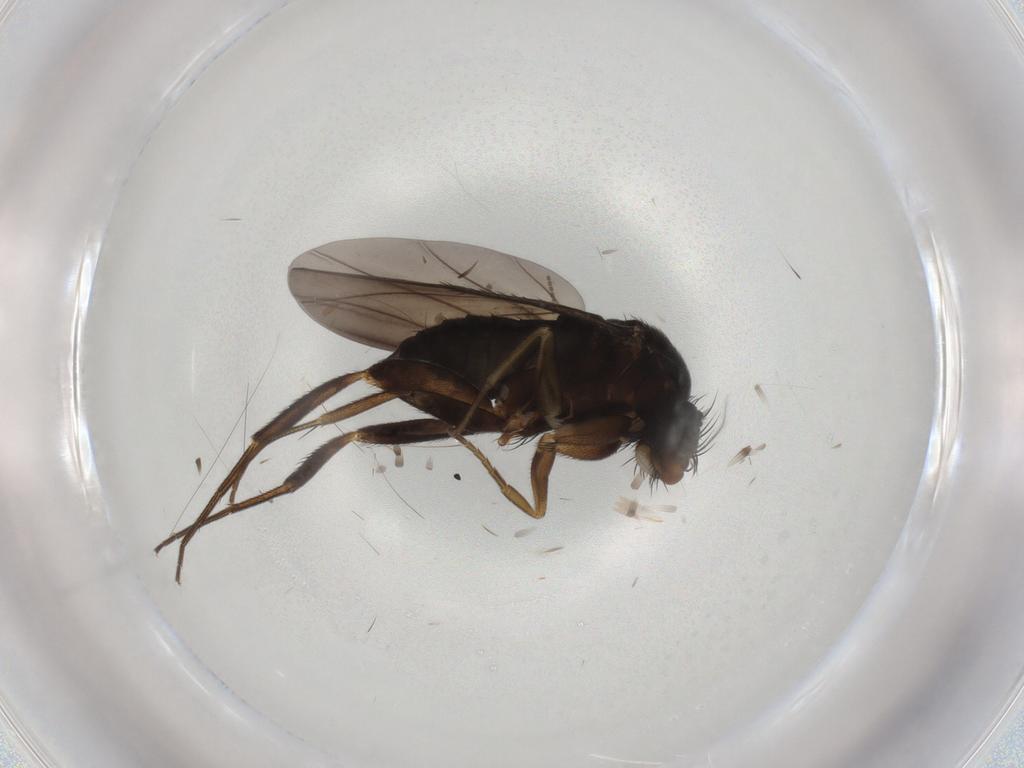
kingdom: Animalia
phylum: Arthropoda
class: Insecta
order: Diptera
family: Phoridae
